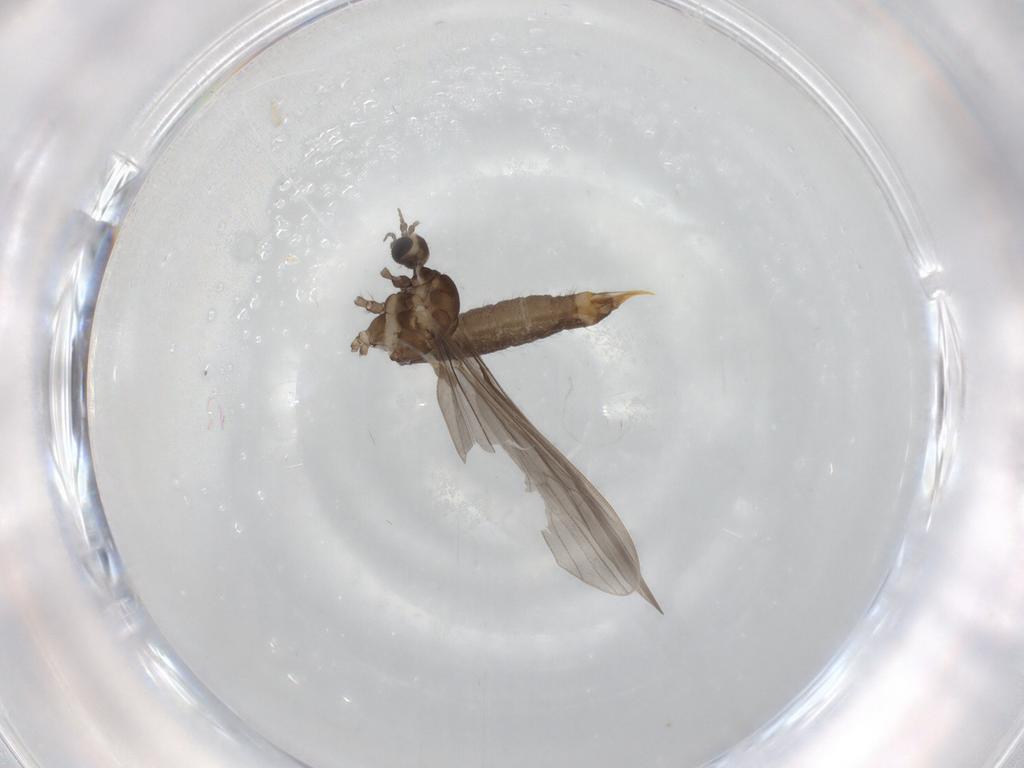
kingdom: Animalia
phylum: Arthropoda
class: Insecta
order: Diptera
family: Limoniidae
